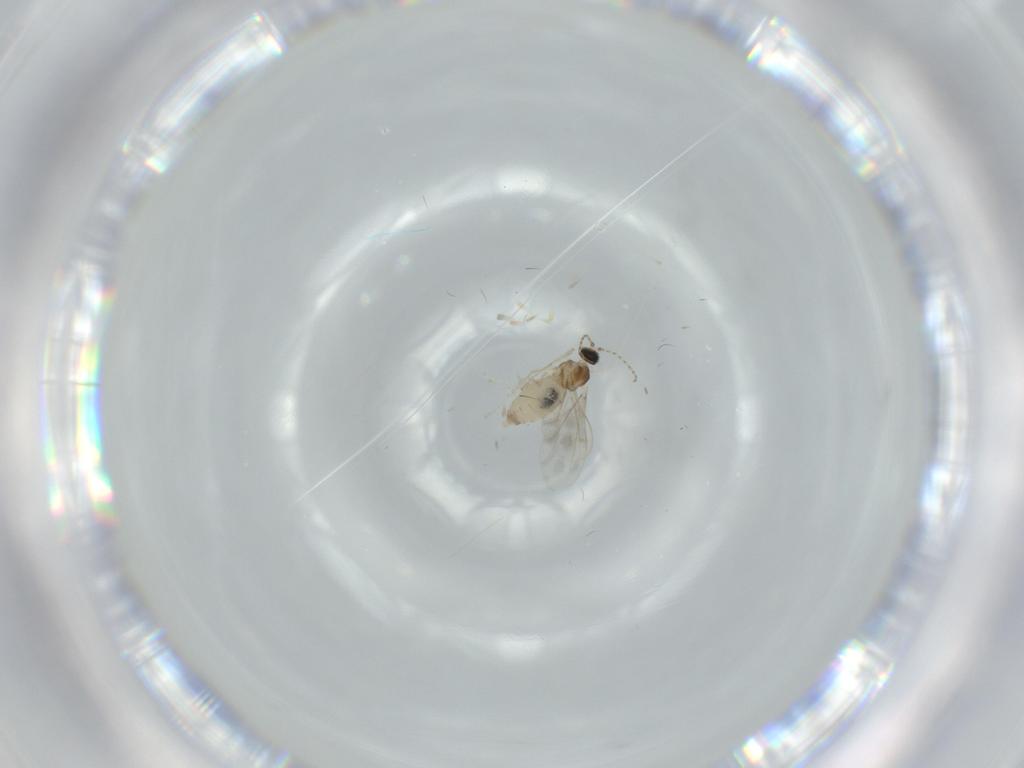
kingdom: Animalia
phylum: Arthropoda
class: Insecta
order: Diptera
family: Cecidomyiidae
